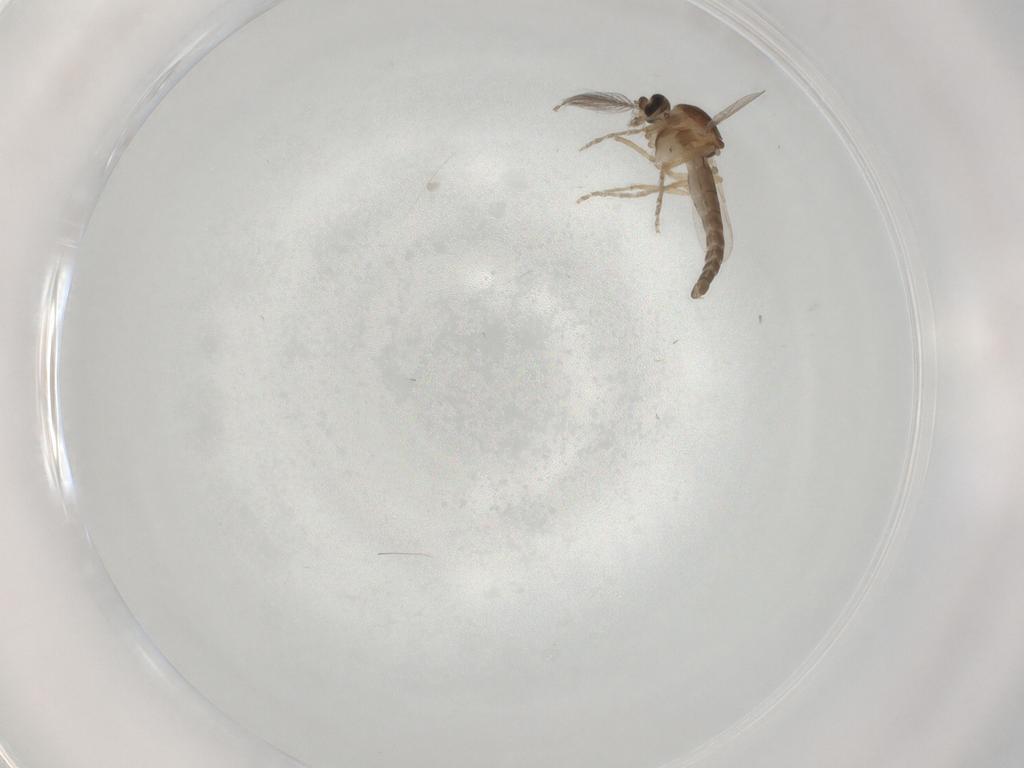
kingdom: Animalia
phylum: Arthropoda
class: Insecta
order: Diptera
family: Ceratopogonidae
